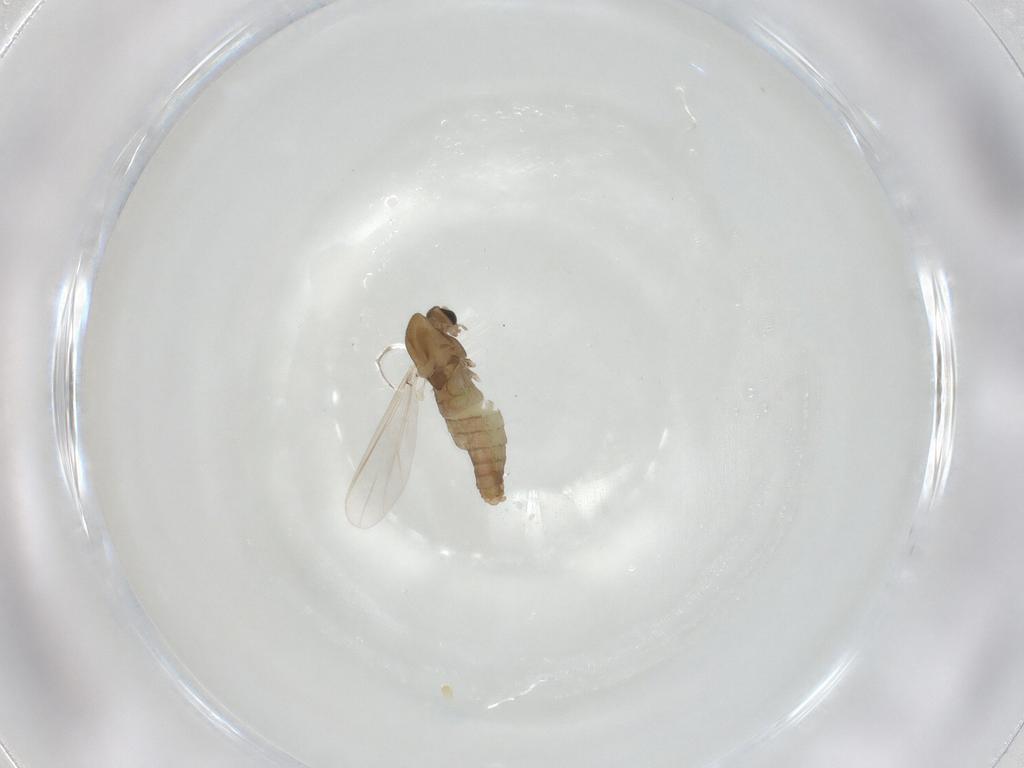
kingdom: Animalia
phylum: Arthropoda
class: Insecta
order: Diptera
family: Chironomidae
